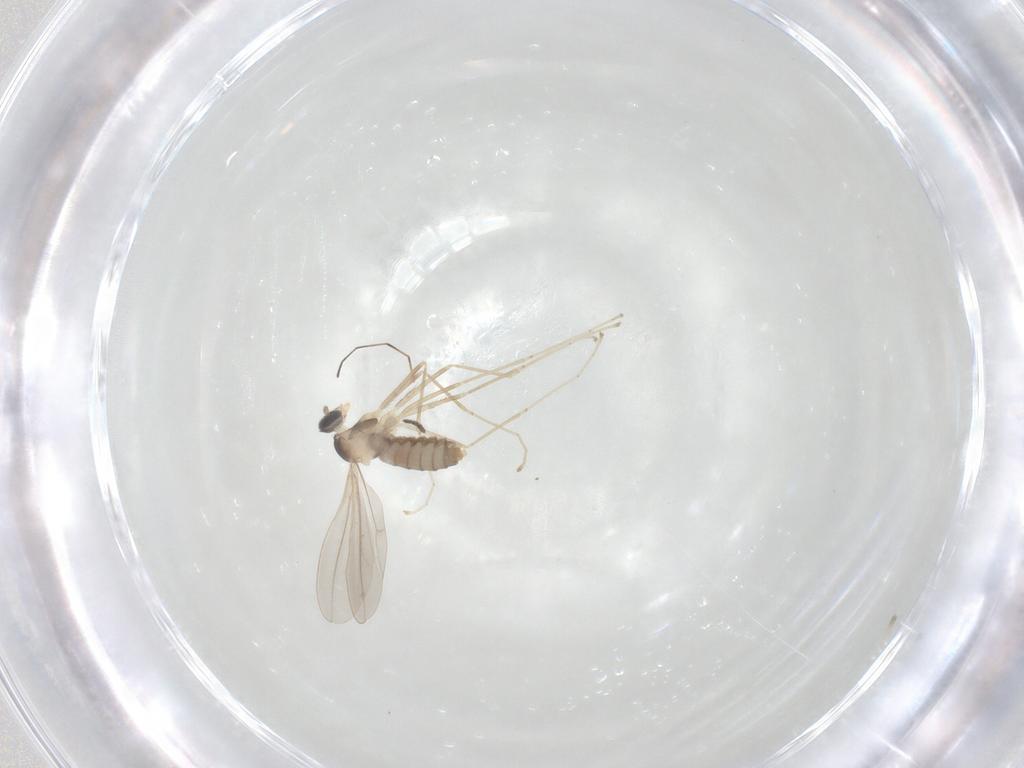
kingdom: Animalia
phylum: Arthropoda
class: Insecta
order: Diptera
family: Cecidomyiidae
